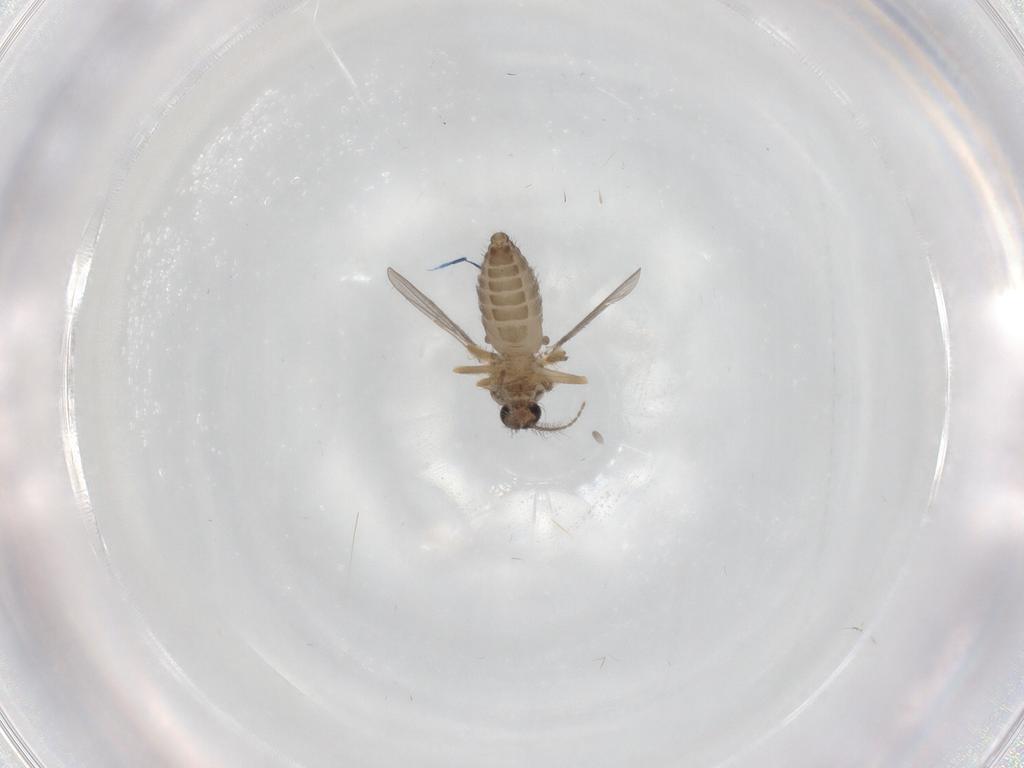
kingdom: Animalia
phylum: Arthropoda
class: Insecta
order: Diptera
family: Ceratopogonidae
